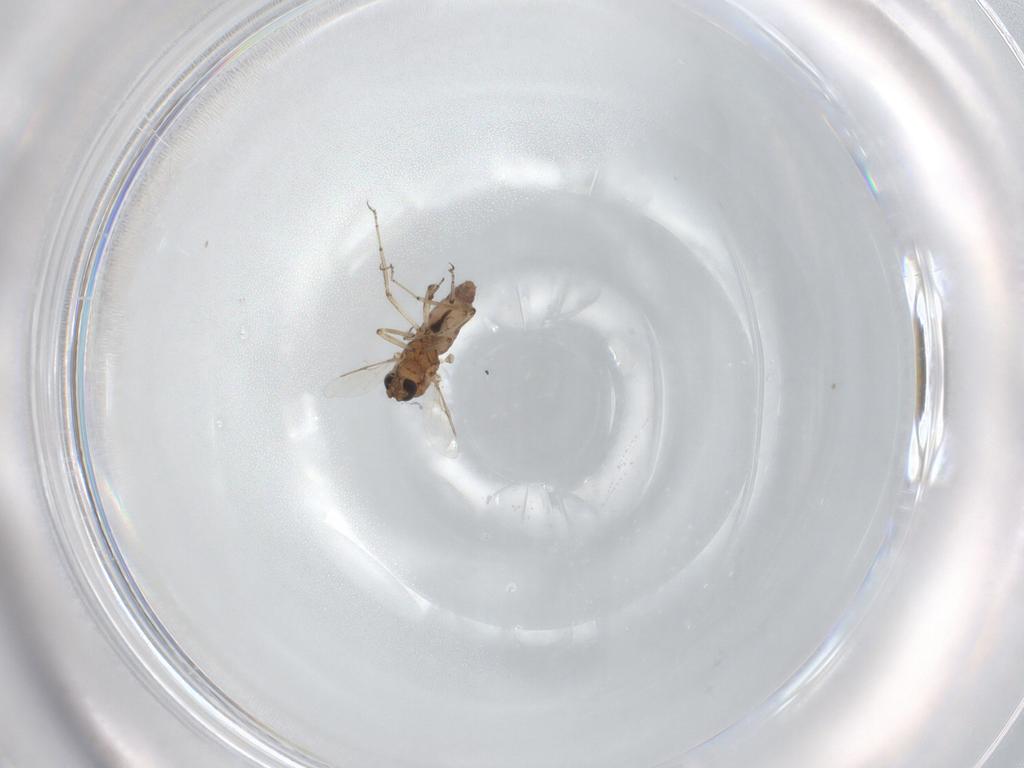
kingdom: Animalia
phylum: Arthropoda
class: Insecta
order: Diptera
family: Ceratopogonidae
